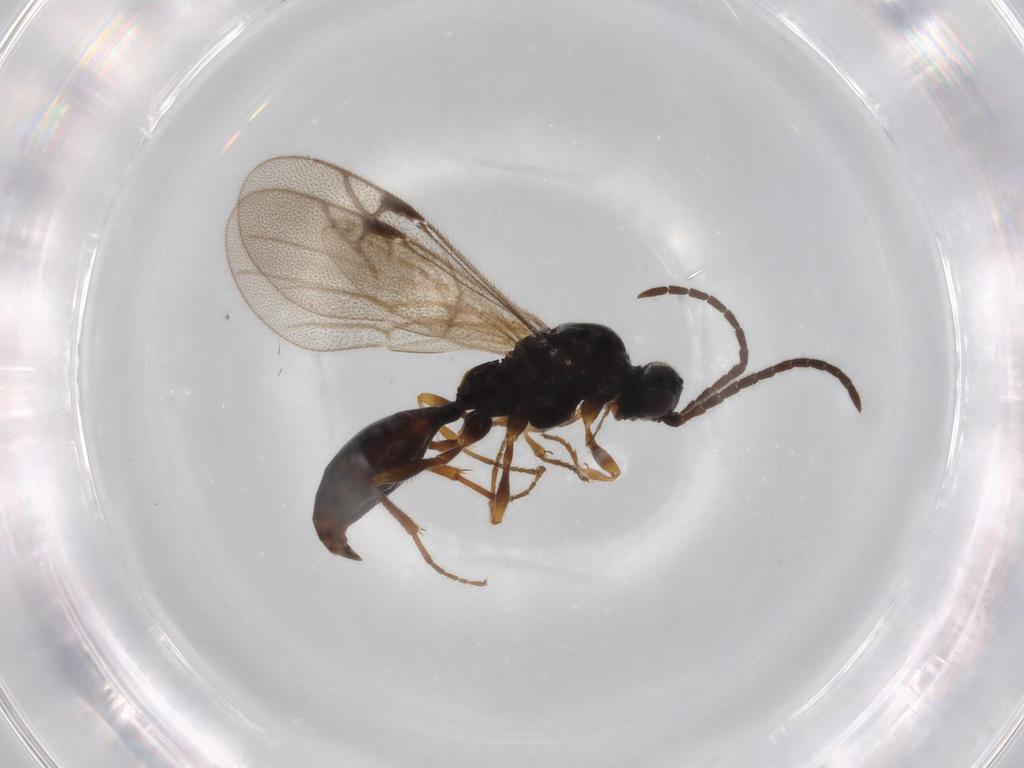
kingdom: Animalia
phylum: Arthropoda
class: Insecta
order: Hymenoptera
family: Proctotrupidae
